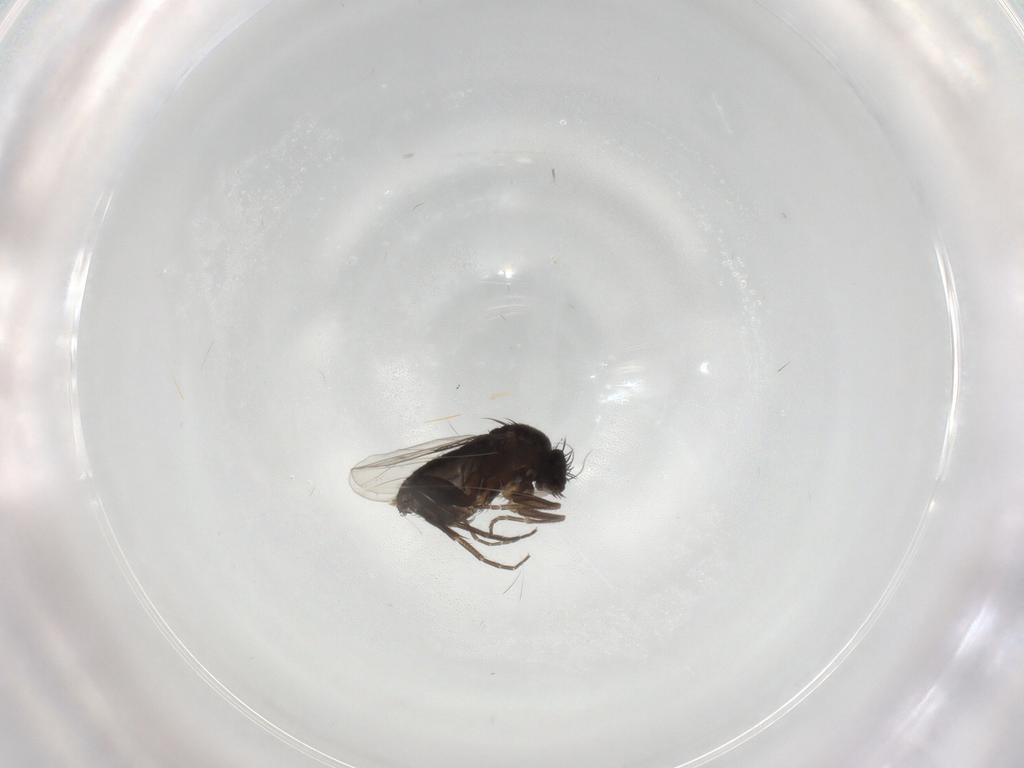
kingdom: Animalia
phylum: Arthropoda
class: Insecta
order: Diptera
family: Phoridae
